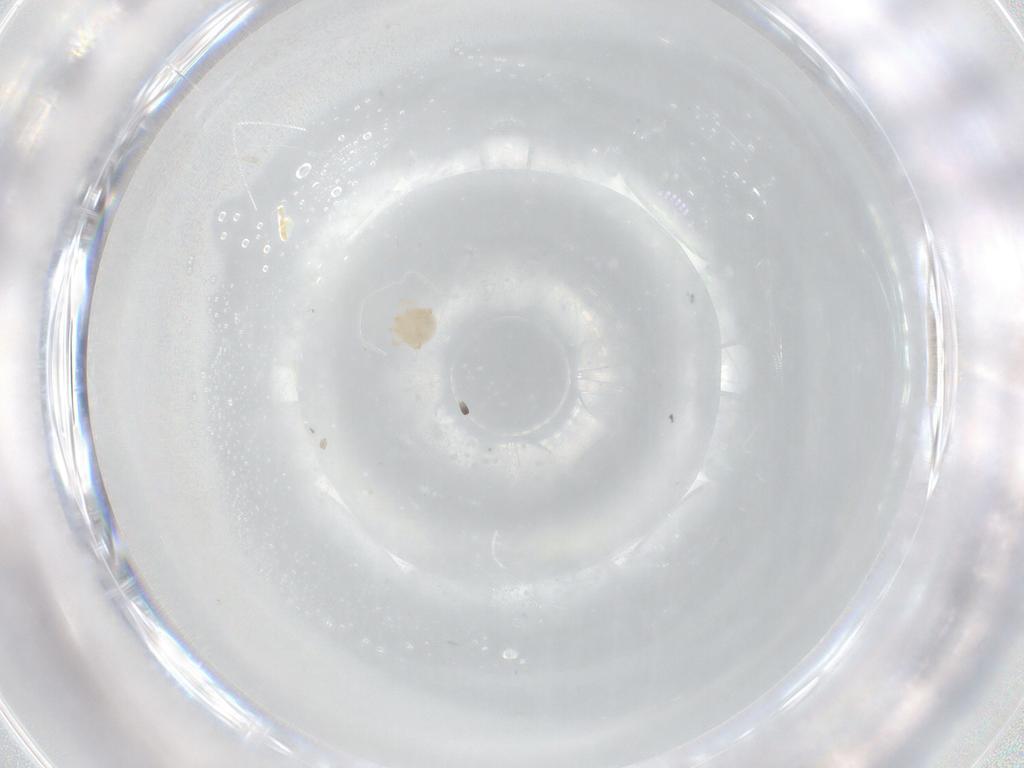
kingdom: Animalia
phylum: Arthropoda
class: Arachnida
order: Trombidiformes
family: Sperchontidae
